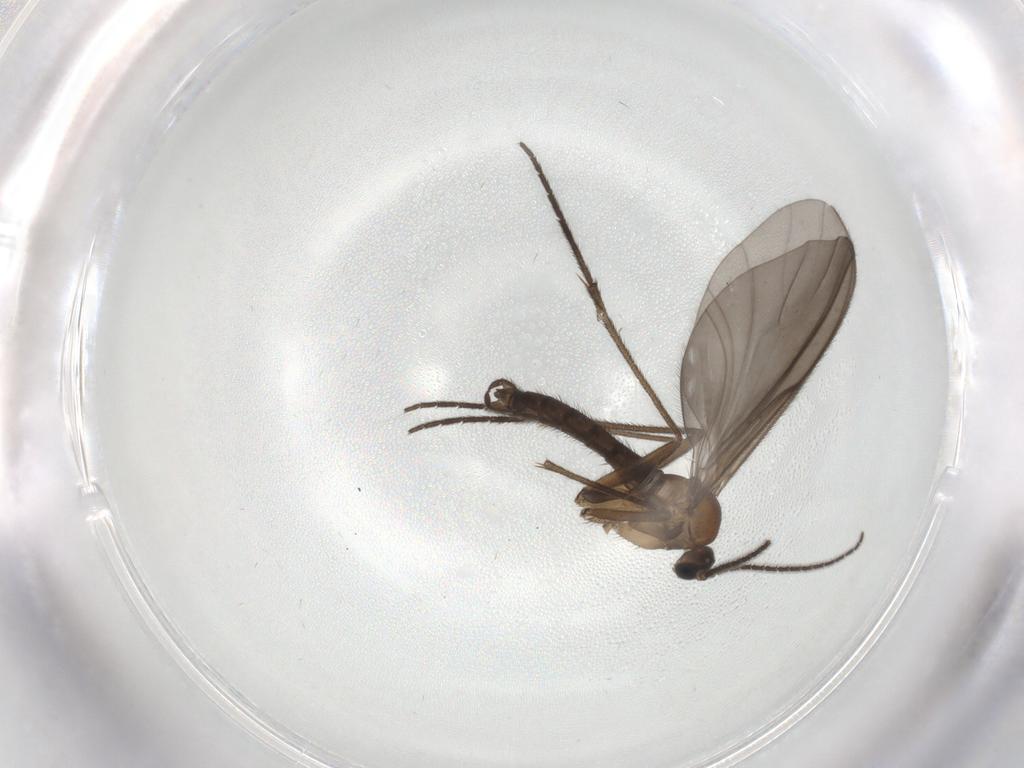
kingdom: Animalia
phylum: Arthropoda
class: Insecta
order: Diptera
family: Sciaridae
